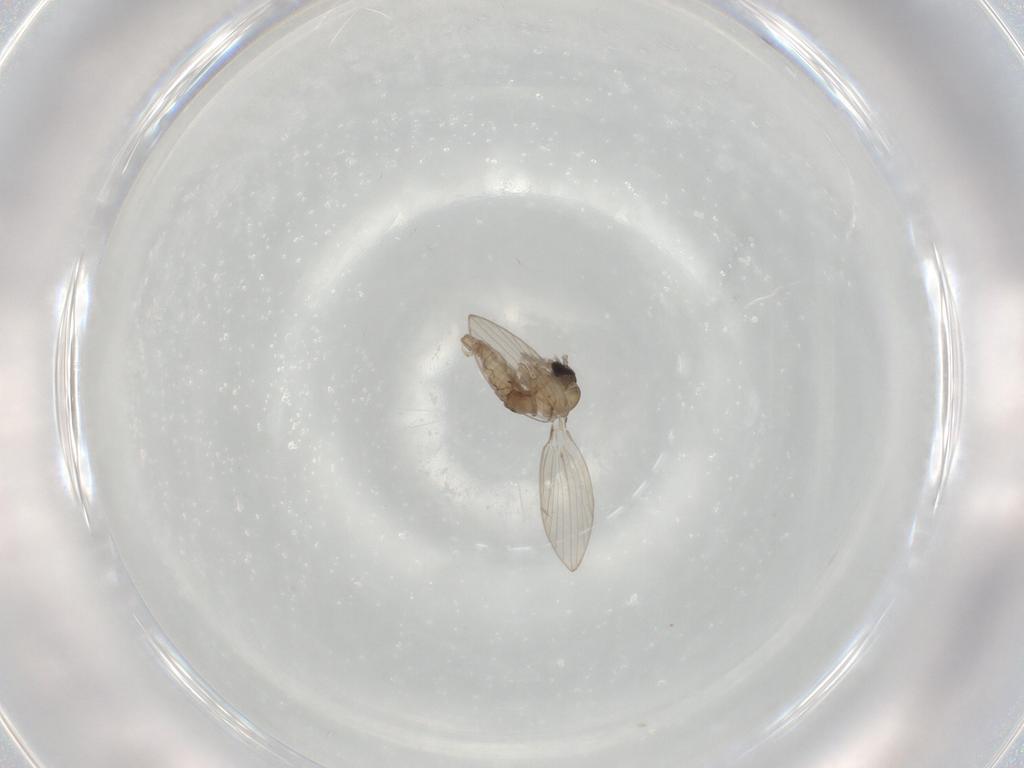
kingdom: Animalia
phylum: Arthropoda
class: Insecta
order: Diptera
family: Psychodidae
